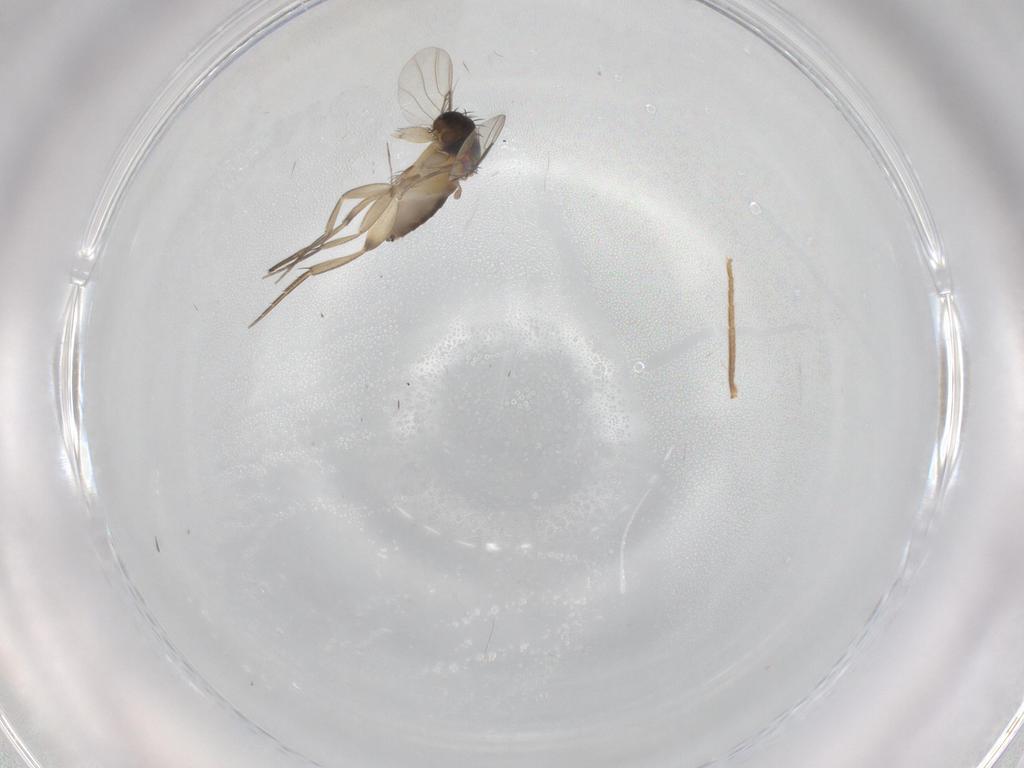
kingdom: Animalia
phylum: Arthropoda
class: Insecta
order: Diptera
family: Phoridae
